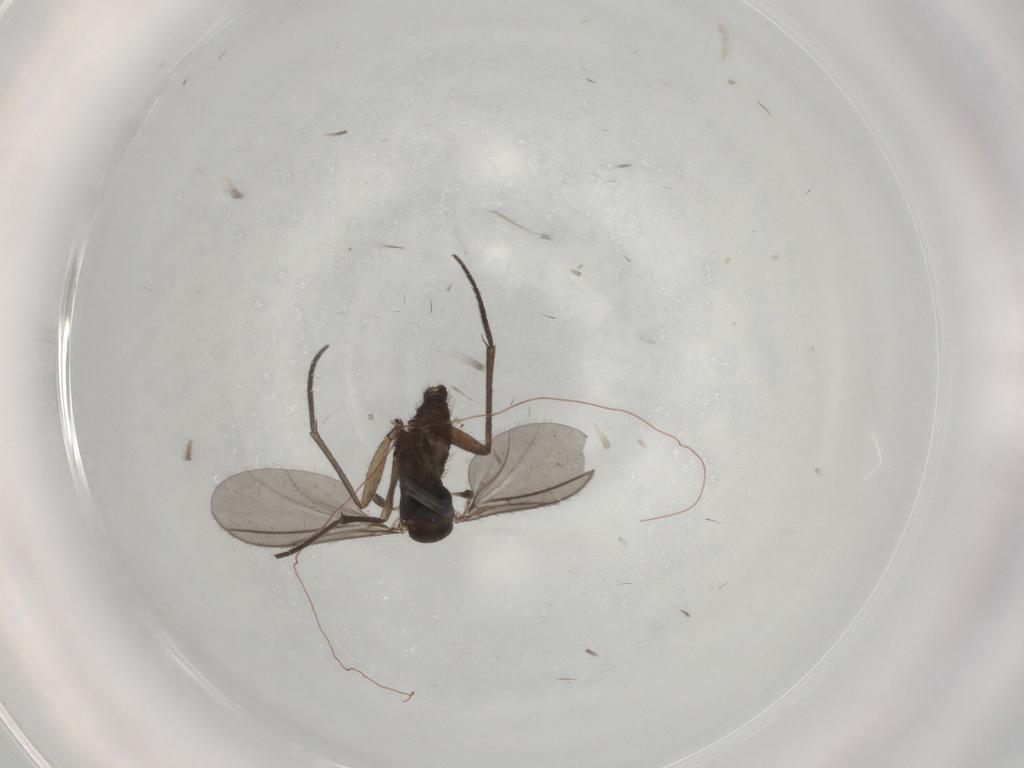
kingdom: Animalia
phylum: Arthropoda
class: Insecta
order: Diptera
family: Sciaridae
